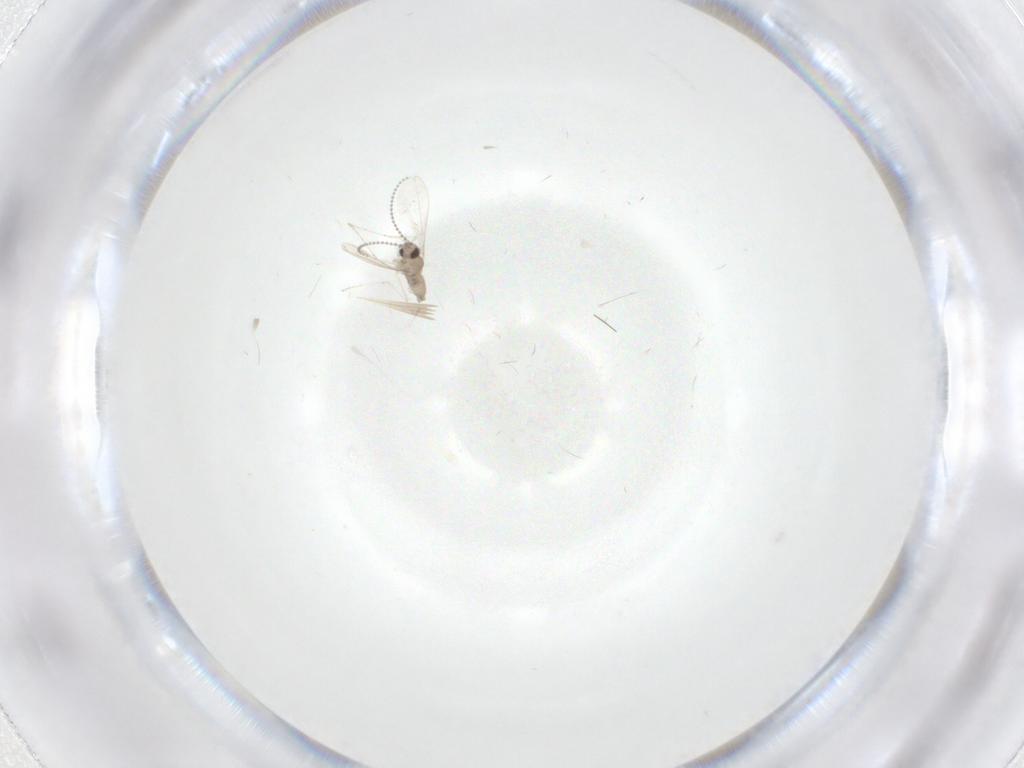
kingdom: Animalia
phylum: Arthropoda
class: Insecta
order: Diptera
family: Cecidomyiidae
